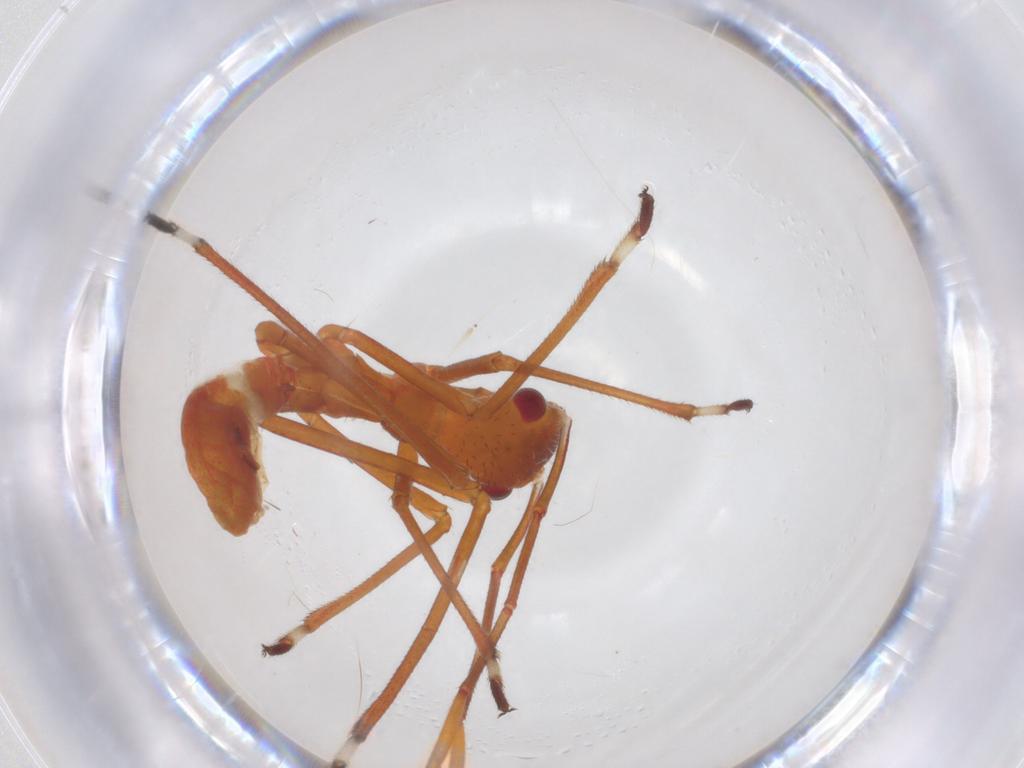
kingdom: Animalia
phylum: Arthropoda
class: Insecta
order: Hemiptera
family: Alydidae
